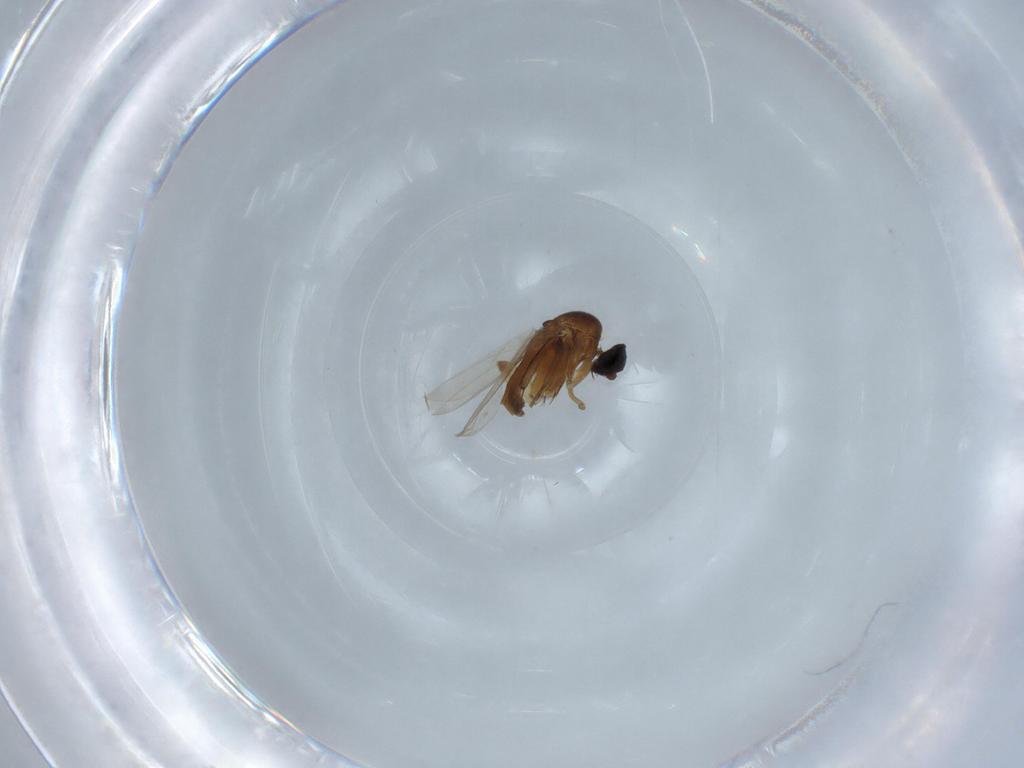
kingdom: Animalia
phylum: Arthropoda
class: Insecta
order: Diptera
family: Phoridae
